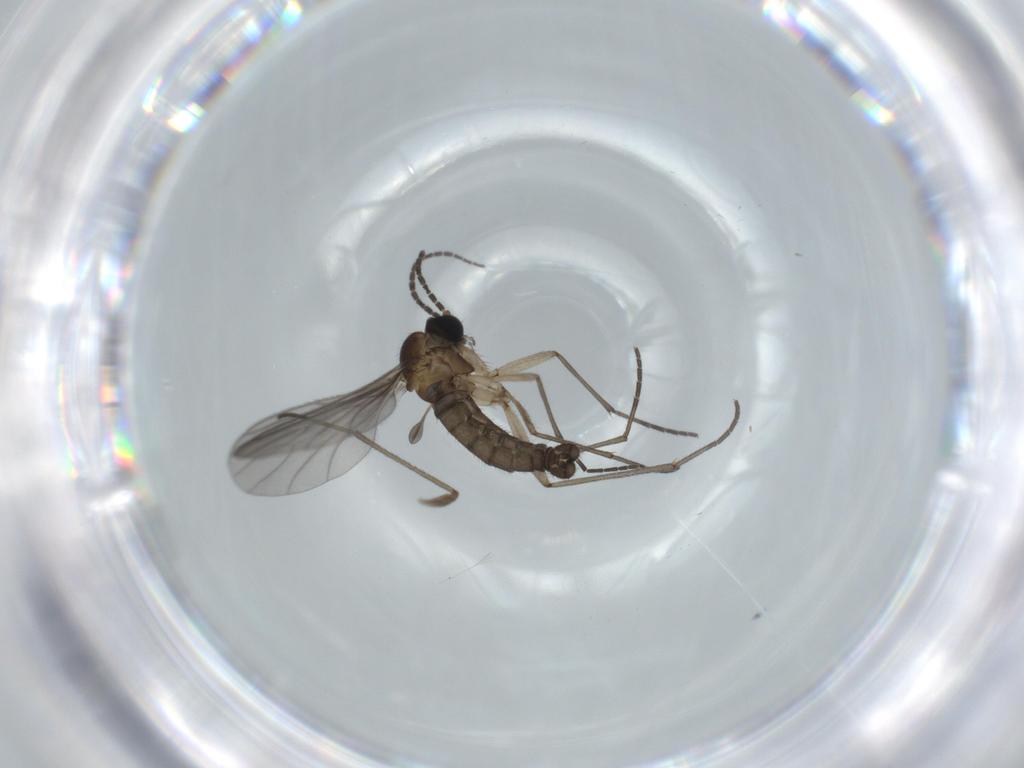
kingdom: Animalia
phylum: Arthropoda
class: Insecta
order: Diptera
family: Sciaridae
